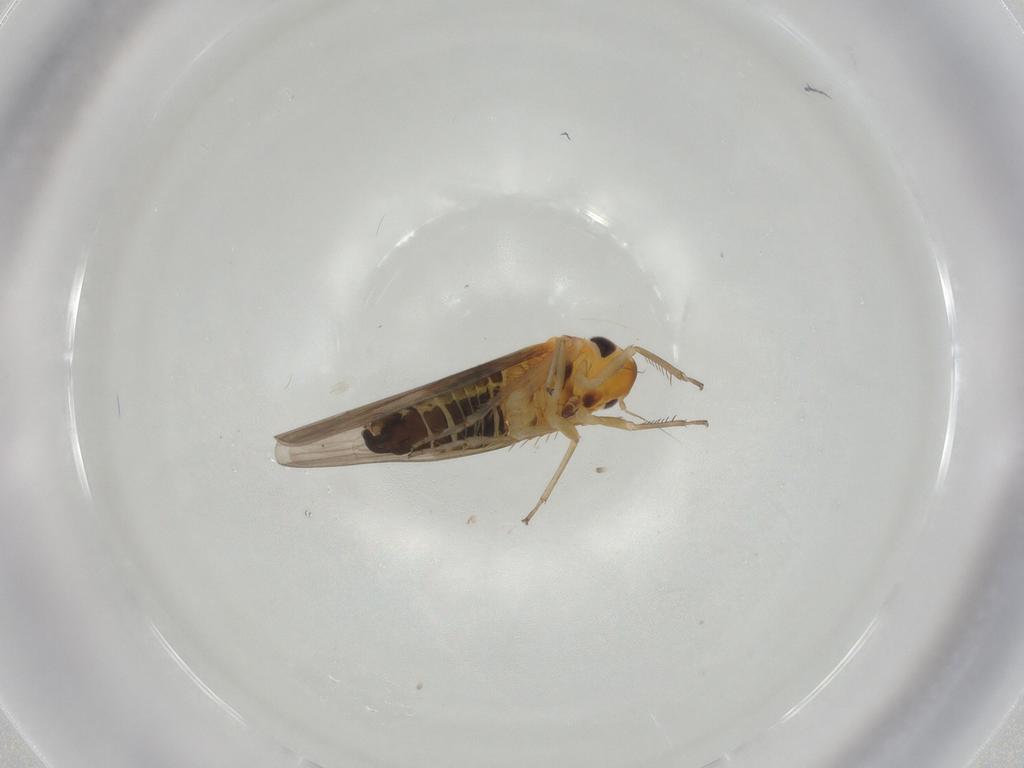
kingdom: Animalia
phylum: Arthropoda
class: Insecta
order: Hemiptera
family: Cicadellidae
